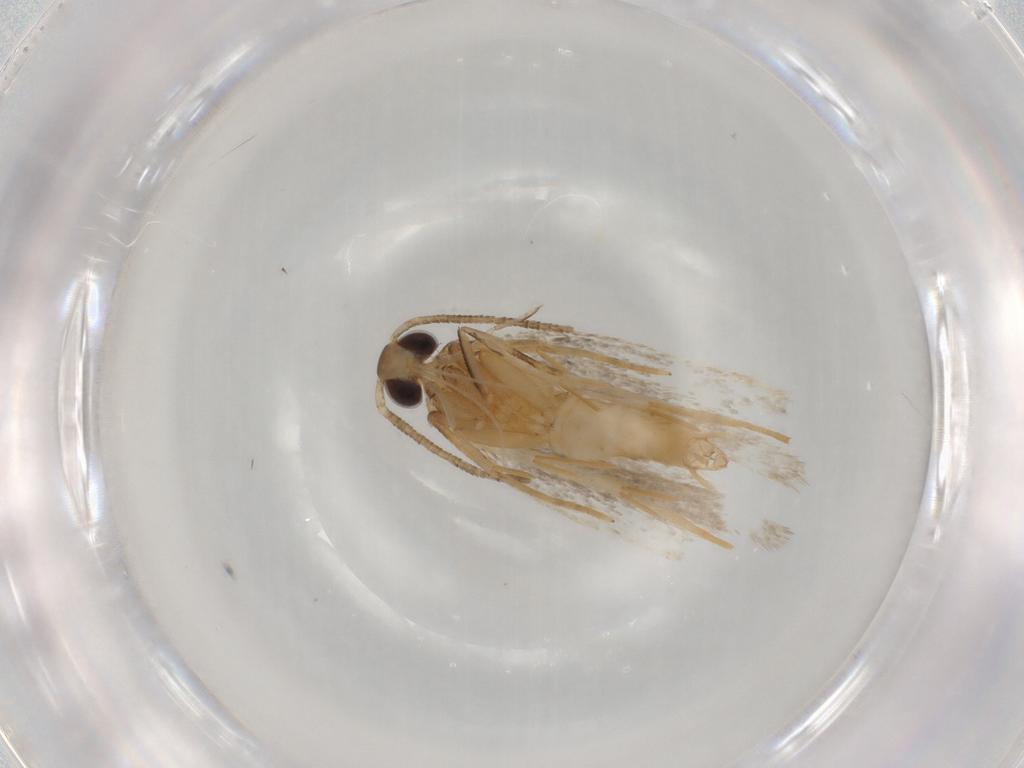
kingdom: Animalia
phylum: Arthropoda
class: Insecta
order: Lepidoptera
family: Autostichidae
